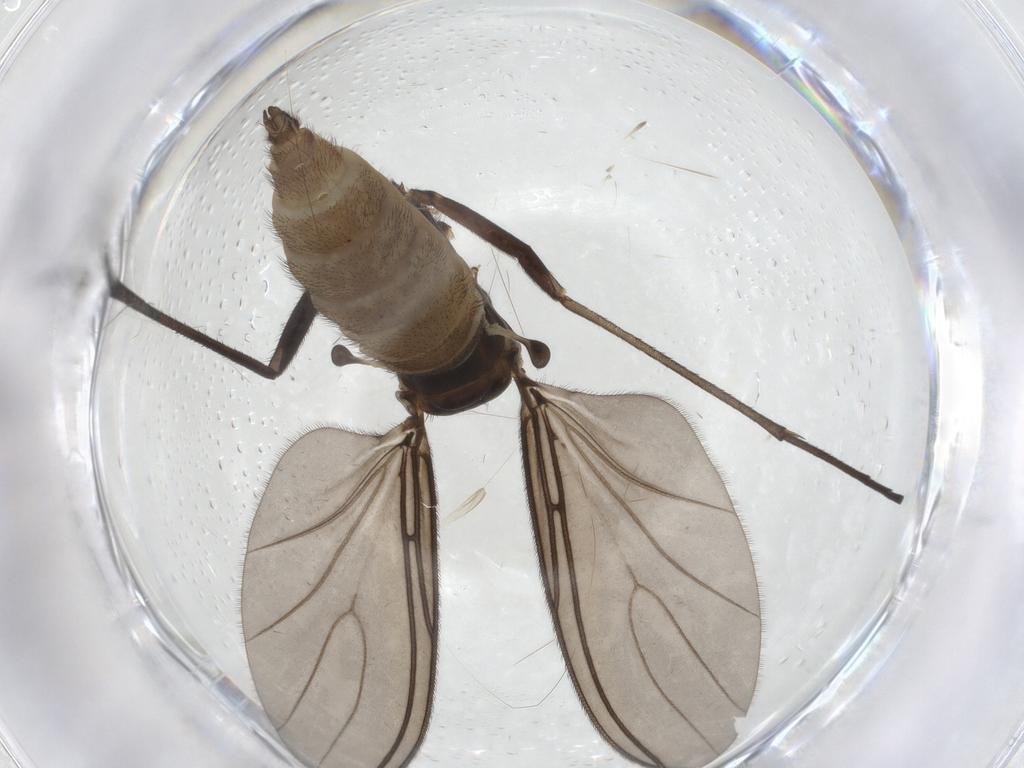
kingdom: Animalia
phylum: Arthropoda
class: Insecta
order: Diptera
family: Sciaridae
